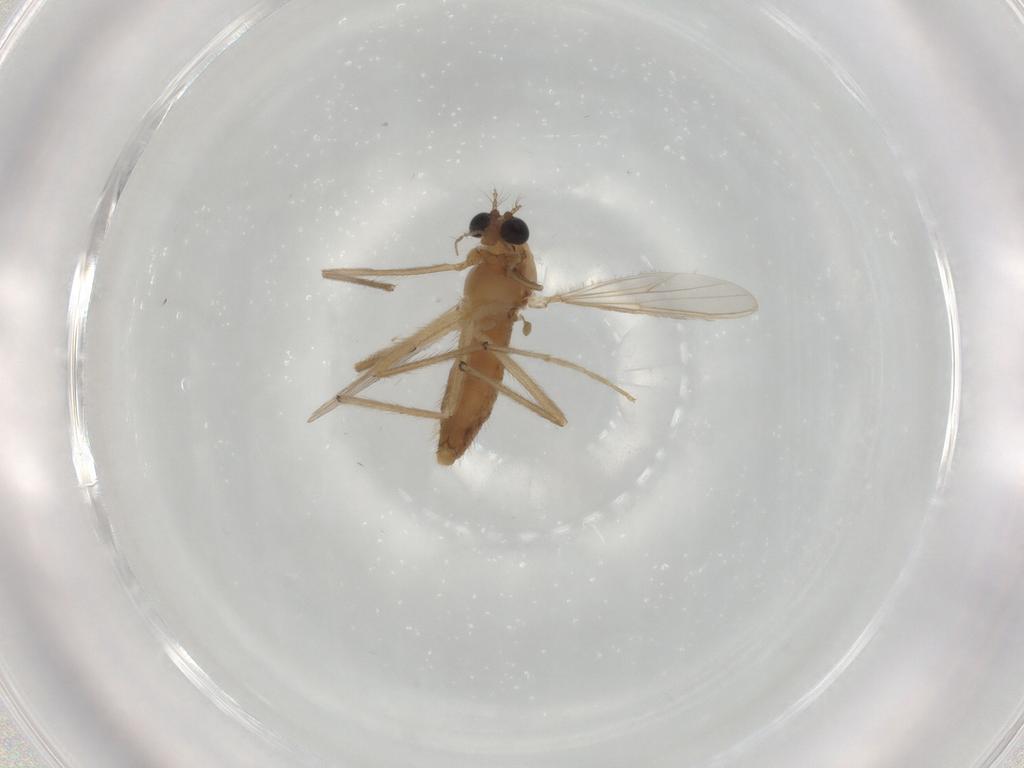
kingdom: Animalia
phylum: Arthropoda
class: Insecta
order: Diptera
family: Chironomidae
